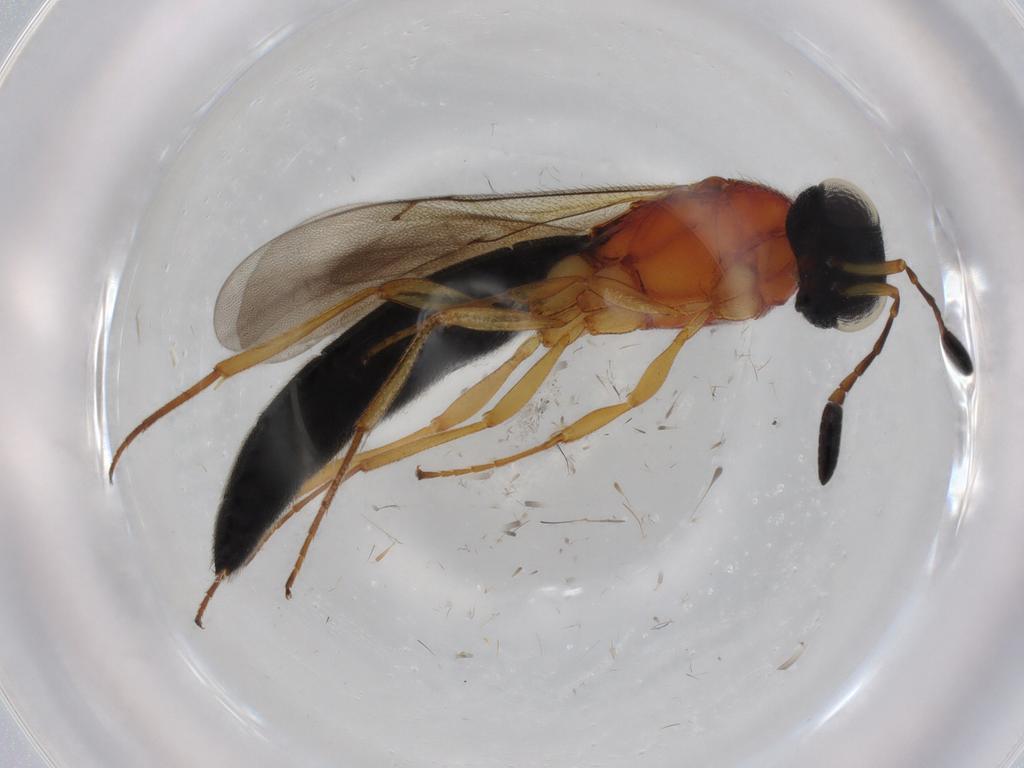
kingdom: Animalia
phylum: Arthropoda
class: Insecta
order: Hymenoptera
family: Scelionidae
